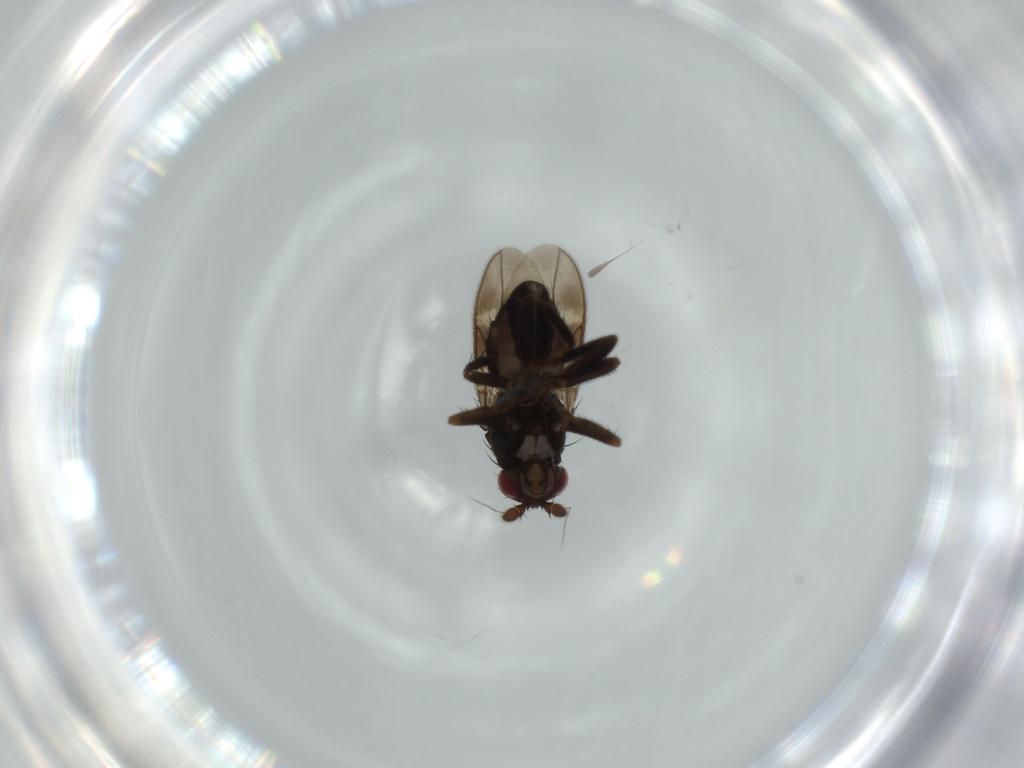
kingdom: Animalia
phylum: Arthropoda
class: Insecta
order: Diptera
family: Sphaeroceridae
